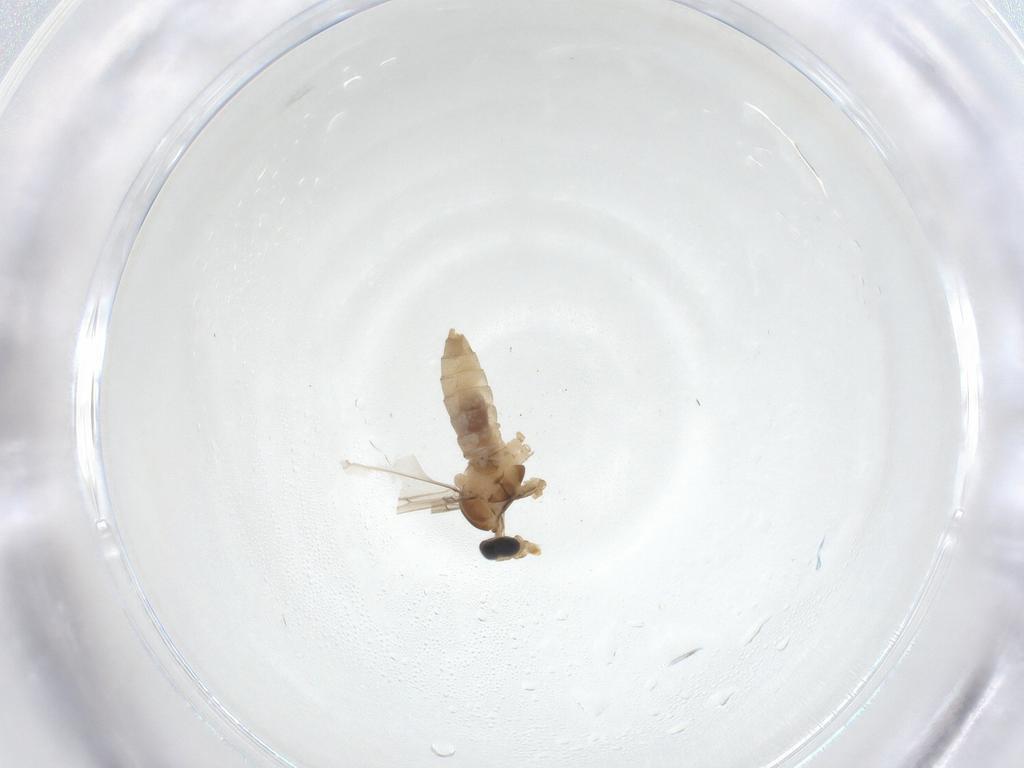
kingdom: Animalia
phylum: Arthropoda
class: Insecta
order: Diptera
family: Cecidomyiidae
